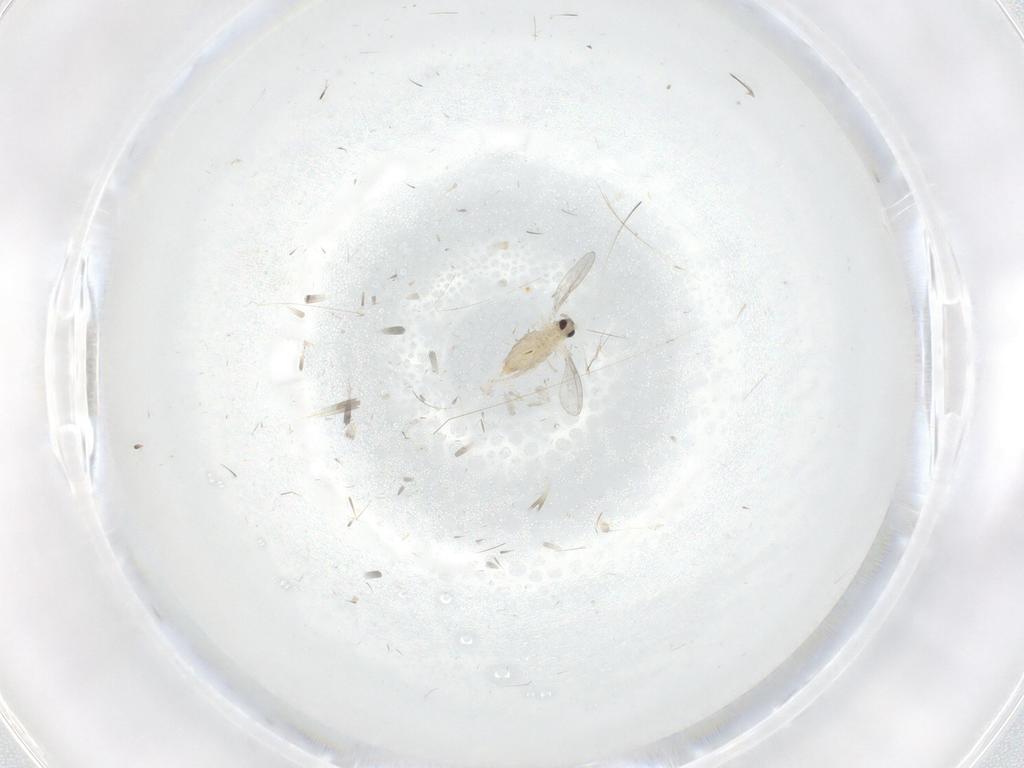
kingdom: Animalia
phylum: Arthropoda
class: Insecta
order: Diptera
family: Cecidomyiidae
